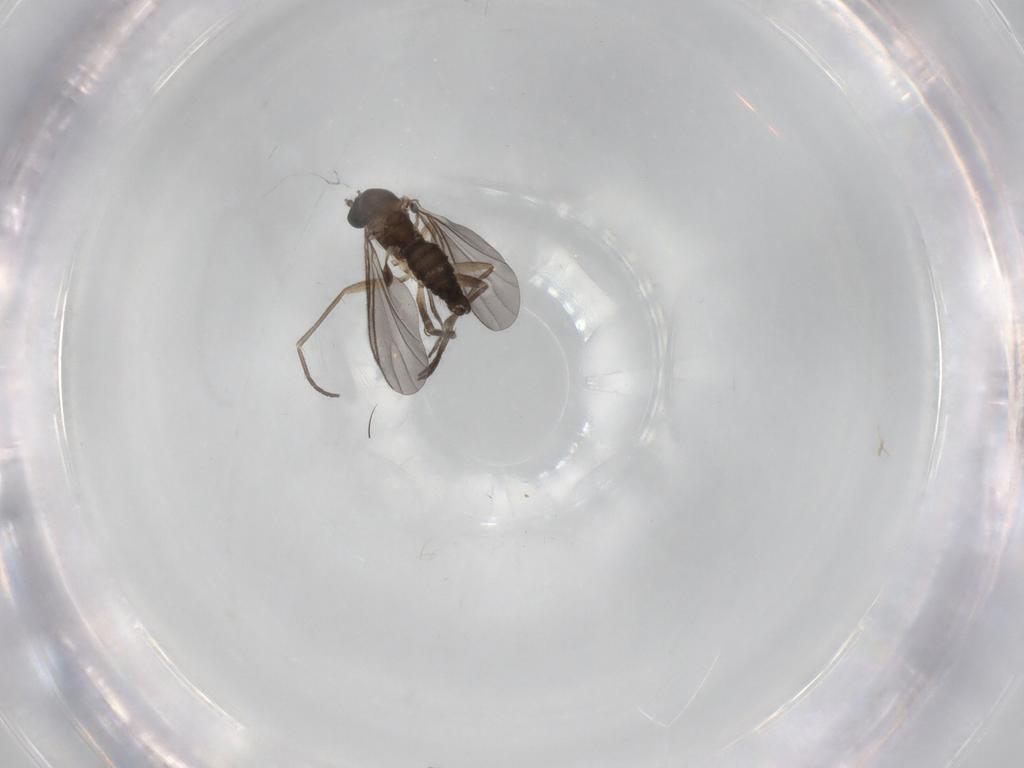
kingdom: Animalia
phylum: Arthropoda
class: Insecta
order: Diptera
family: Sciaridae
